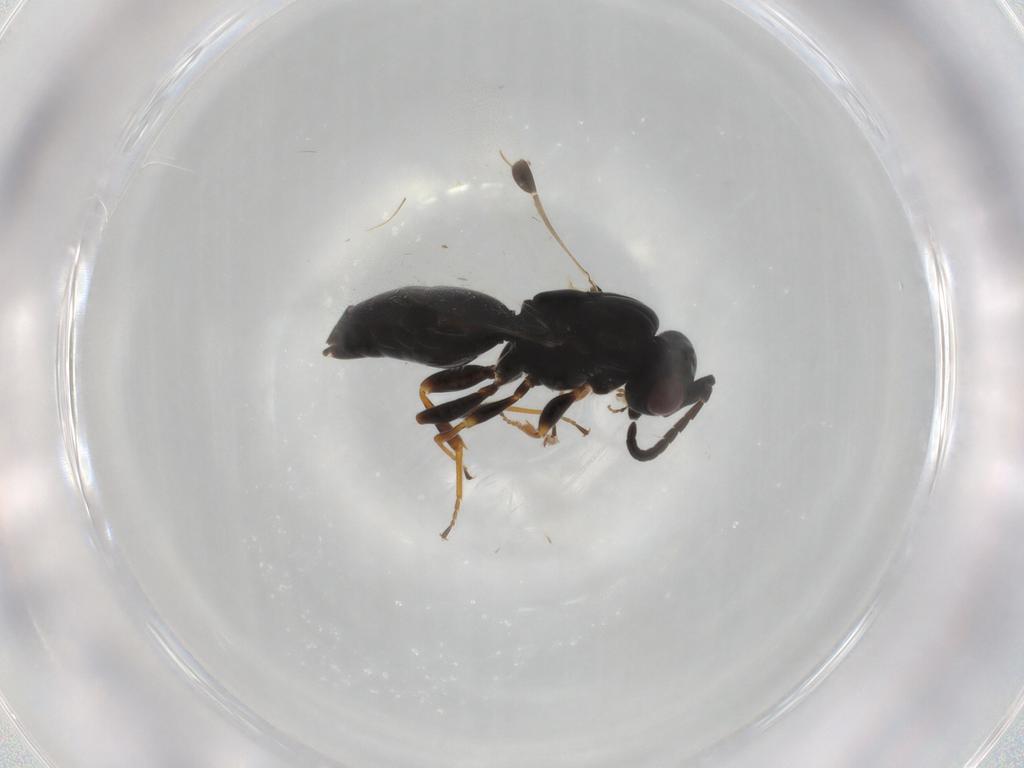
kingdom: Animalia
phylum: Arthropoda
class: Insecta
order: Hymenoptera
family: Megaspilidae
